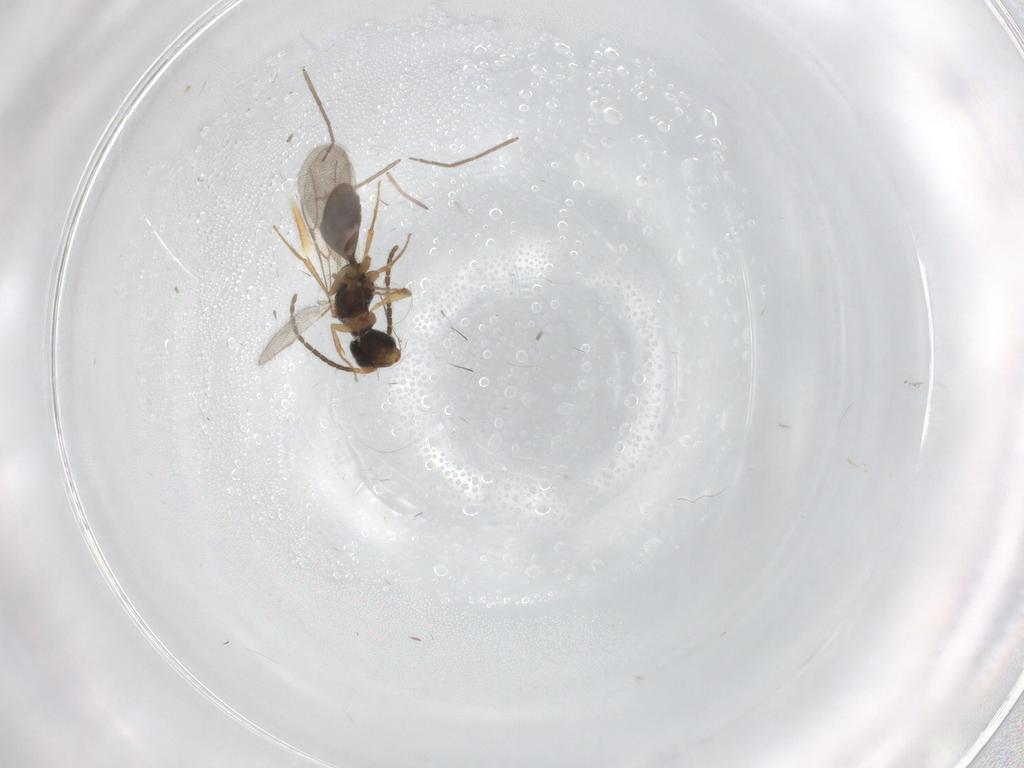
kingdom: Animalia
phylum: Arthropoda
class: Insecta
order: Hymenoptera
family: Bethylidae
